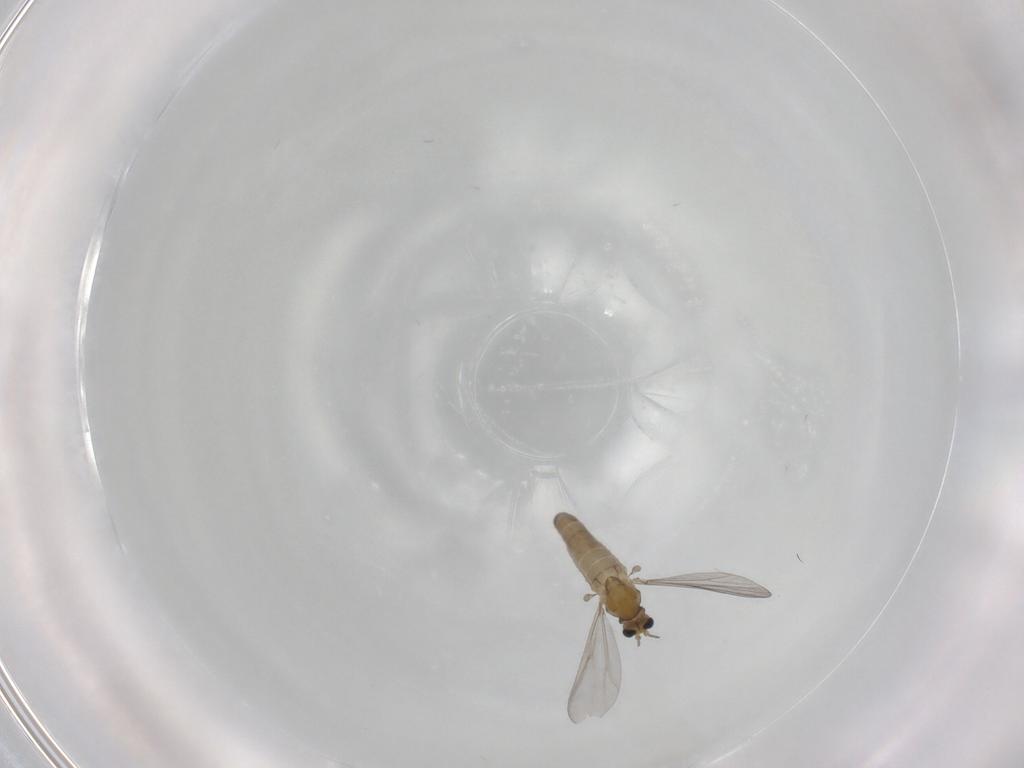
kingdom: Animalia
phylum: Arthropoda
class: Insecta
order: Diptera
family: Chironomidae
